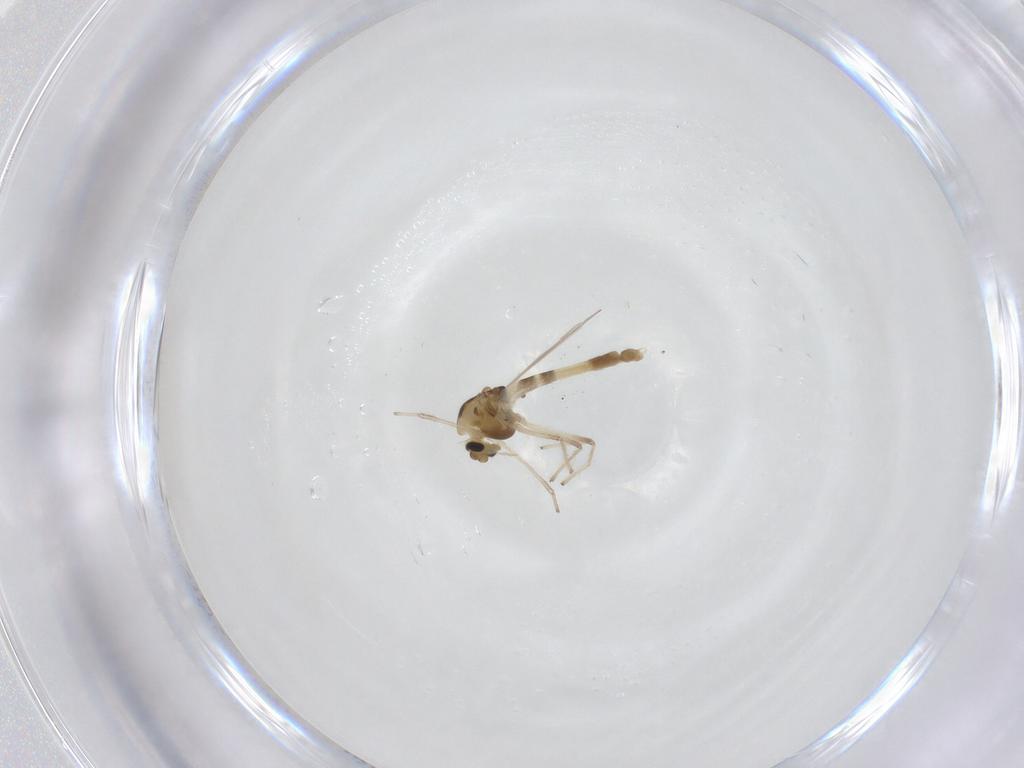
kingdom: Animalia
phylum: Arthropoda
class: Insecta
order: Diptera
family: Chironomidae
